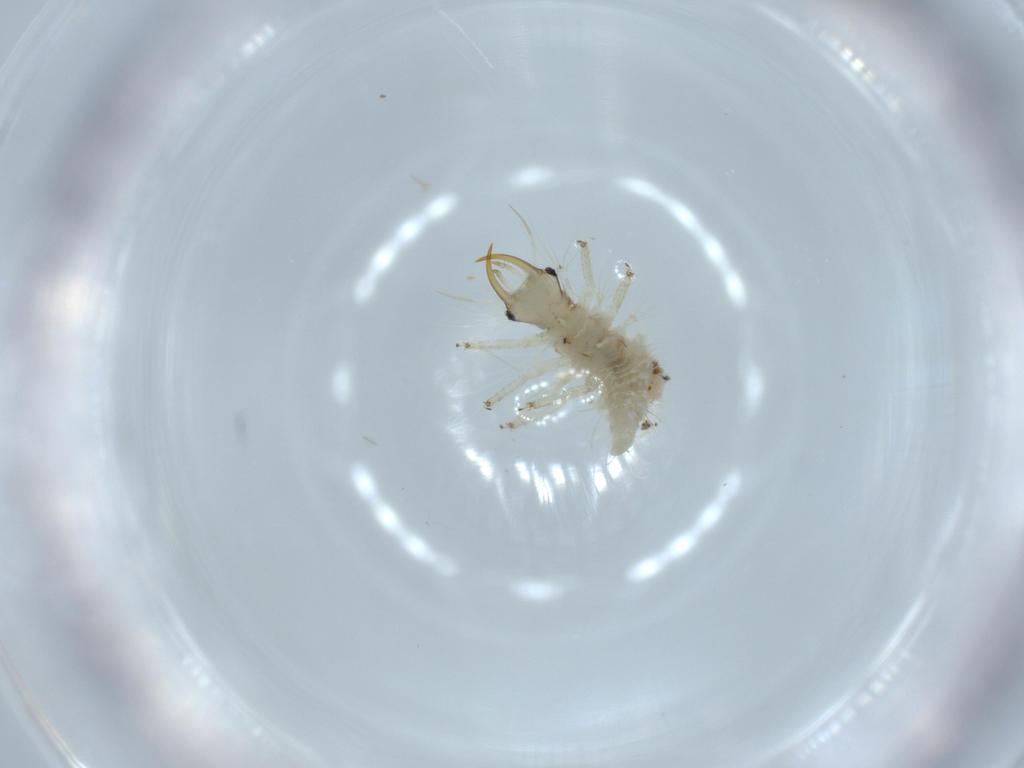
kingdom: Animalia
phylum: Arthropoda
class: Insecta
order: Neuroptera
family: Chrysopidae
